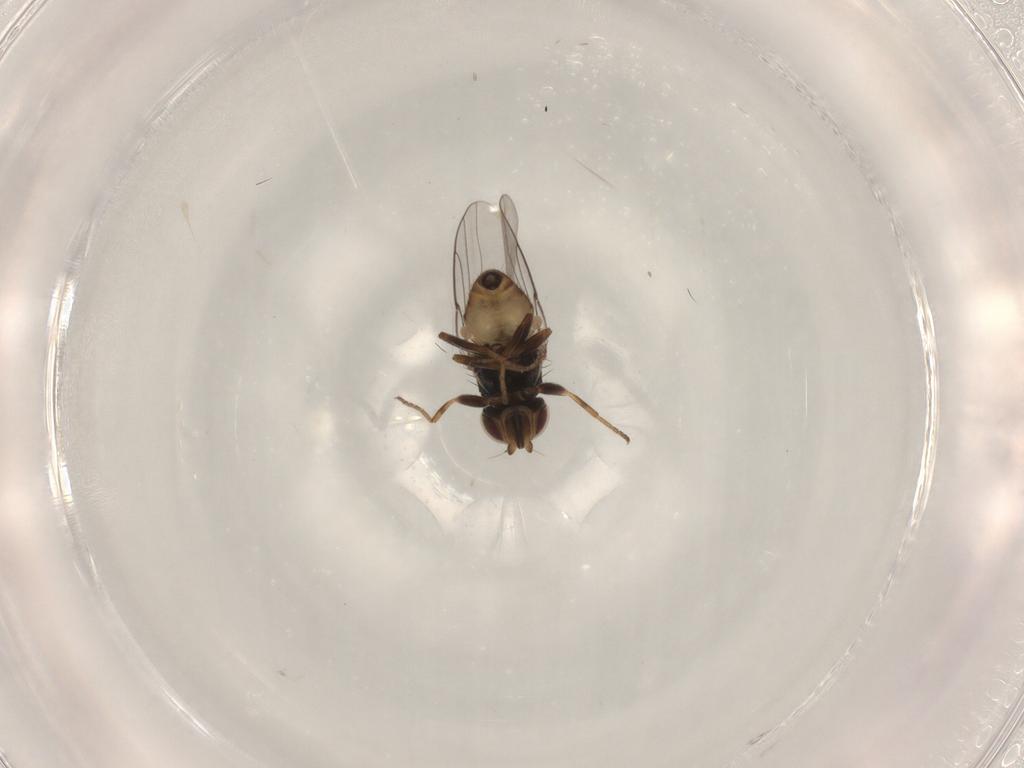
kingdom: Animalia
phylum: Arthropoda
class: Insecta
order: Diptera
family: Chloropidae
